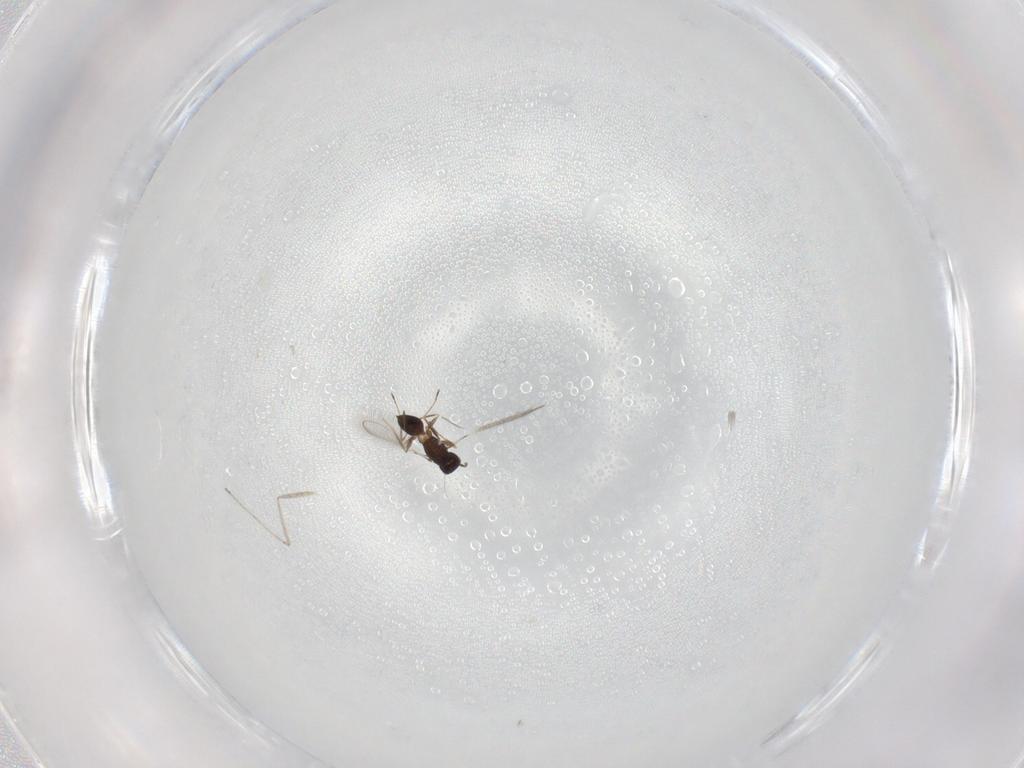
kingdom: Animalia
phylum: Arthropoda
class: Insecta
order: Hymenoptera
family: Mymaridae
